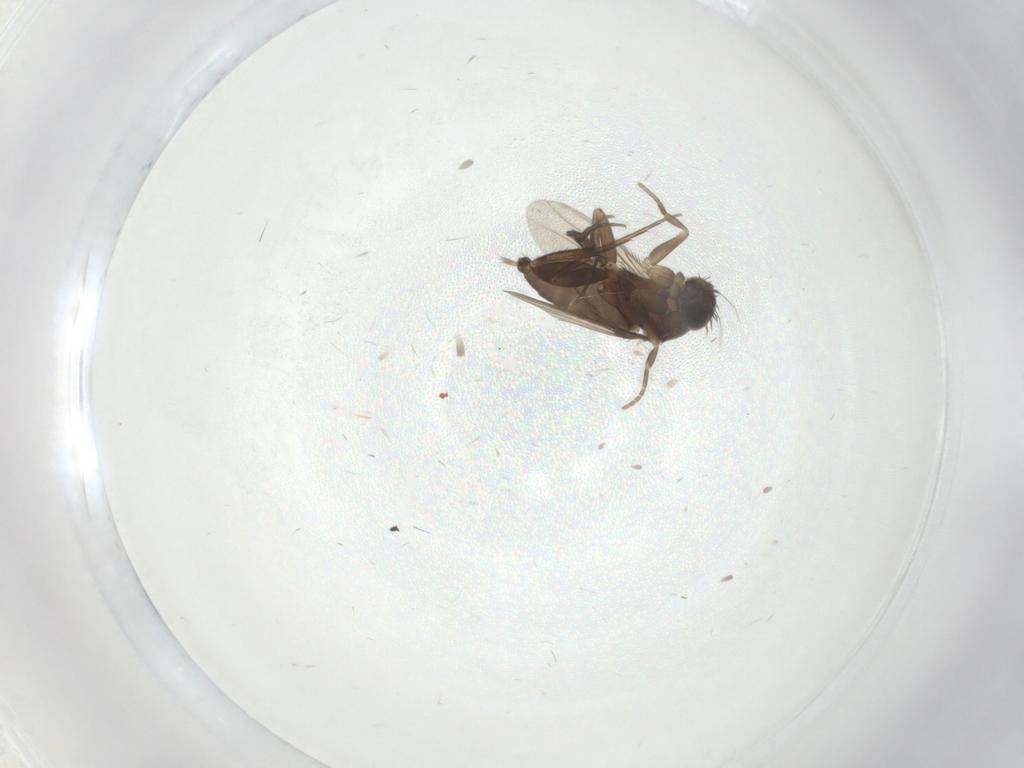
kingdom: Animalia
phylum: Arthropoda
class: Insecta
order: Diptera
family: Phoridae
